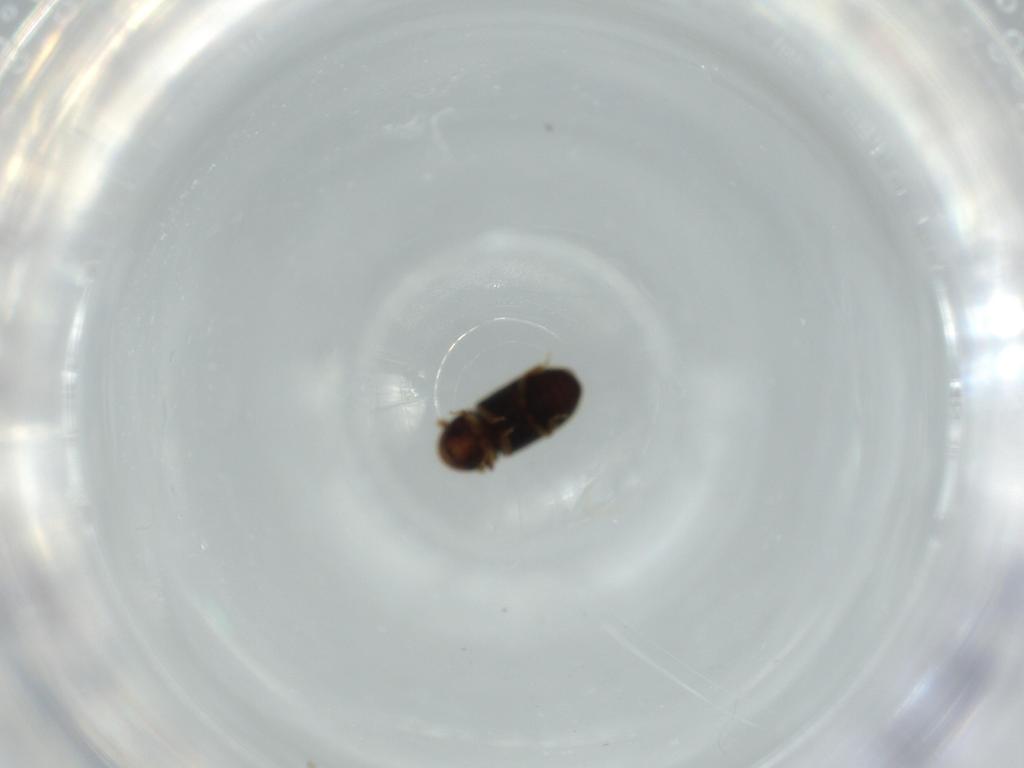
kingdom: Animalia
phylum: Arthropoda
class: Insecta
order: Coleoptera
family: Curculionidae
